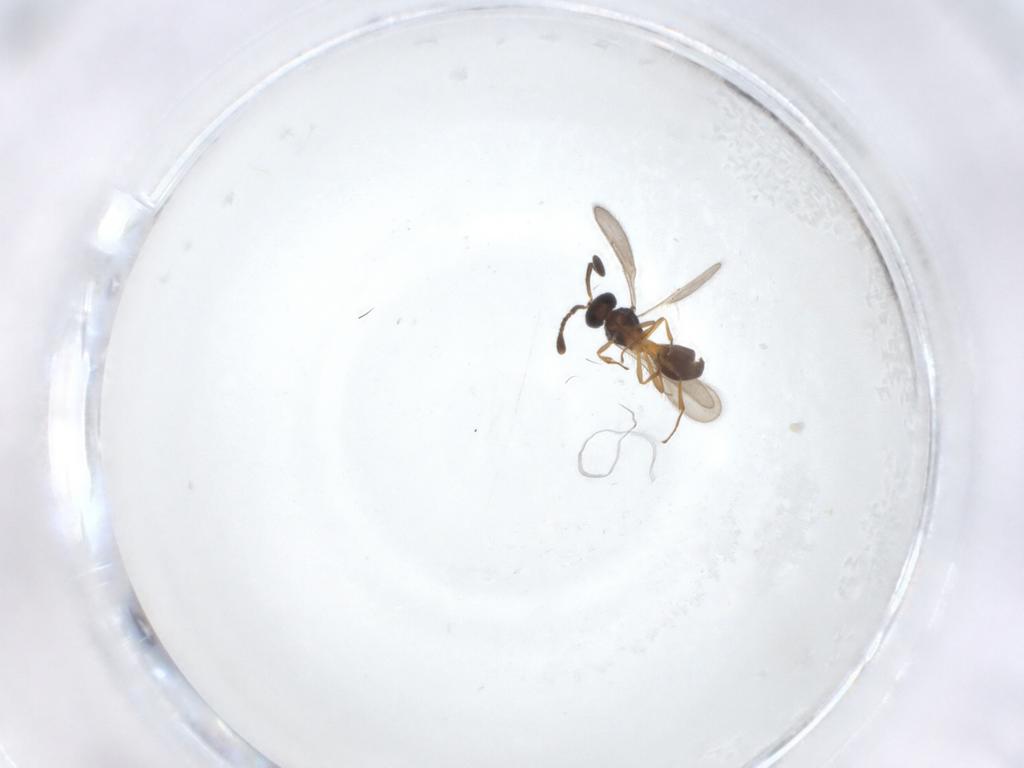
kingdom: Animalia
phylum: Arthropoda
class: Insecta
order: Hymenoptera
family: Scelionidae
